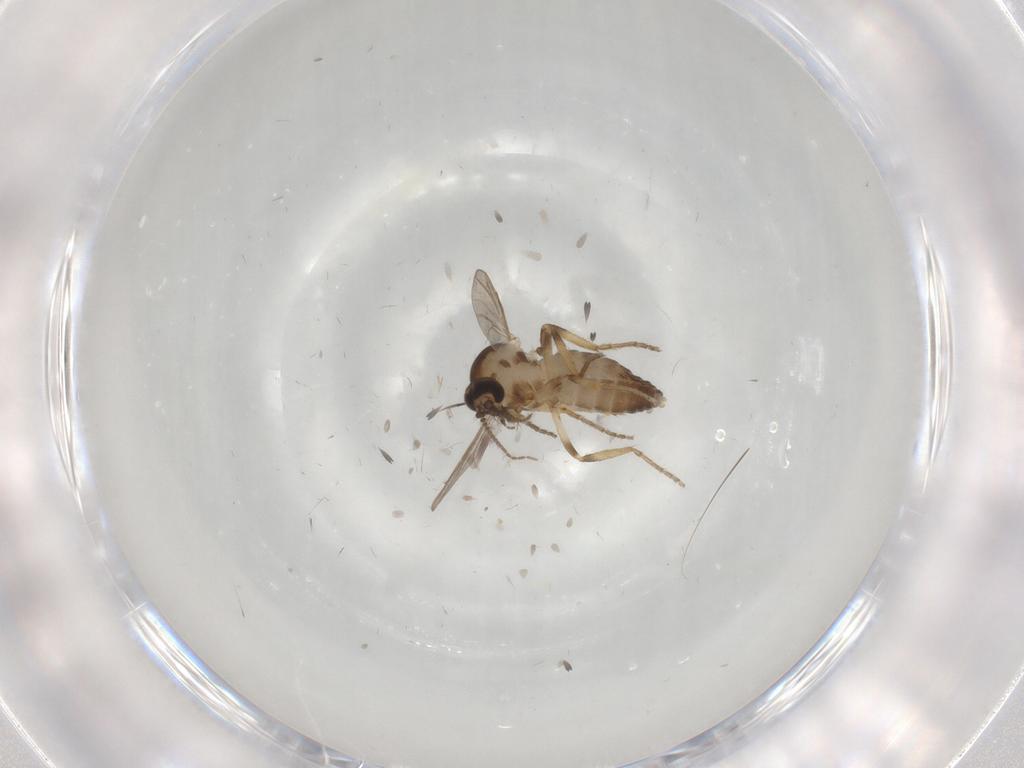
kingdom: Animalia
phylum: Arthropoda
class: Insecta
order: Diptera
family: Ceratopogonidae
